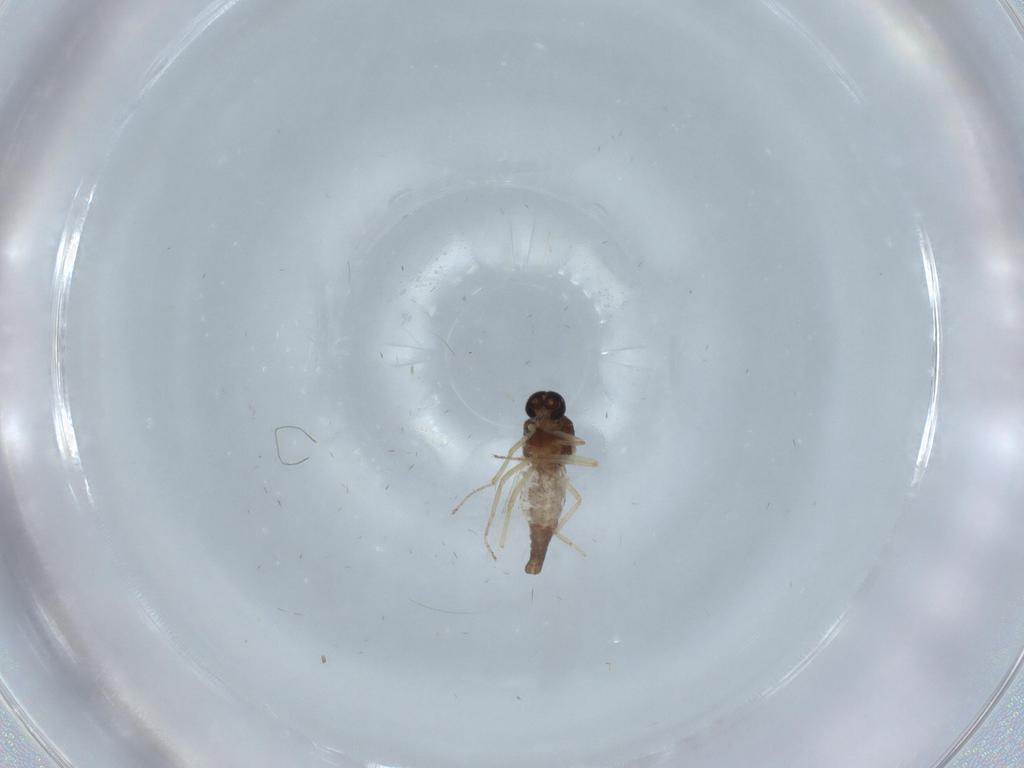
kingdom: Animalia
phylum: Arthropoda
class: Insecta
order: Diptera
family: Ceratopogonidae
